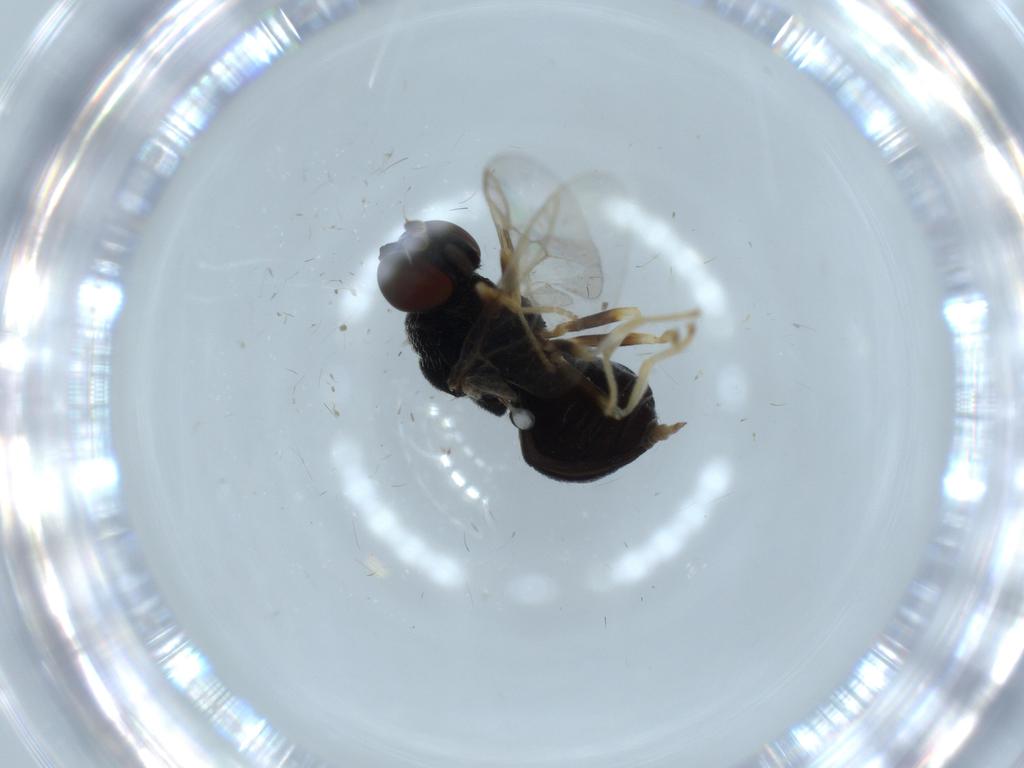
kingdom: Animalia
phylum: Arthropoda
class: Insecta
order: Diptera
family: Stratiomyidae
